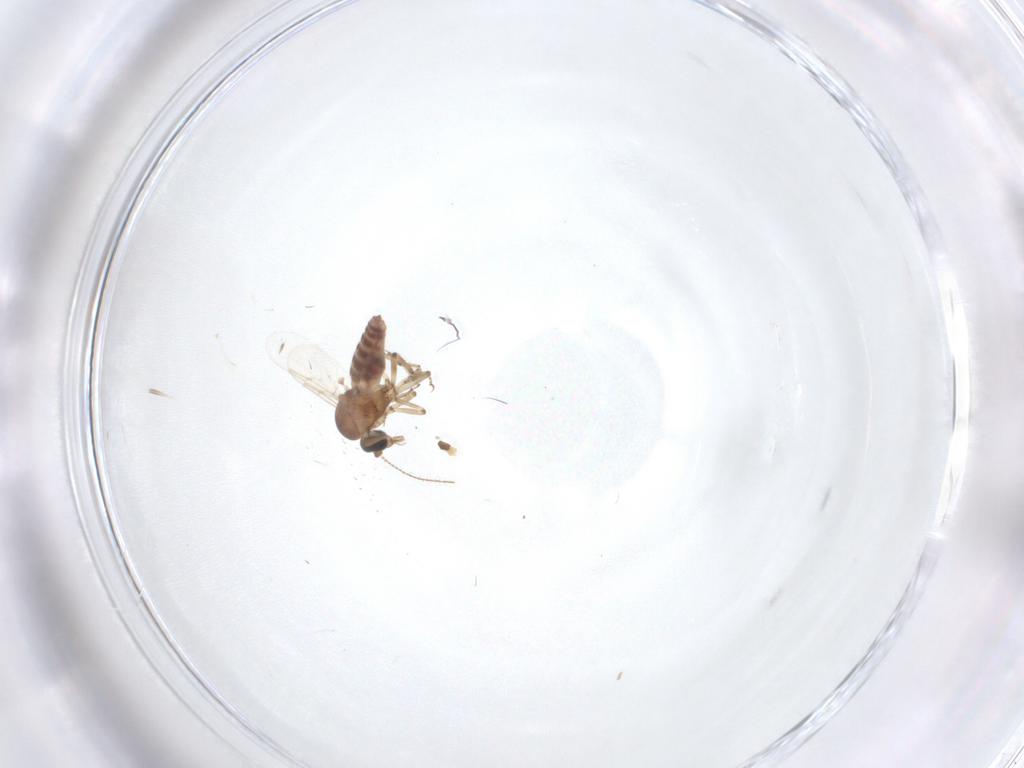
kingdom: Animalia
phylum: Arthropoda
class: Insecta
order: Diptera
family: Ceratopogonidae
